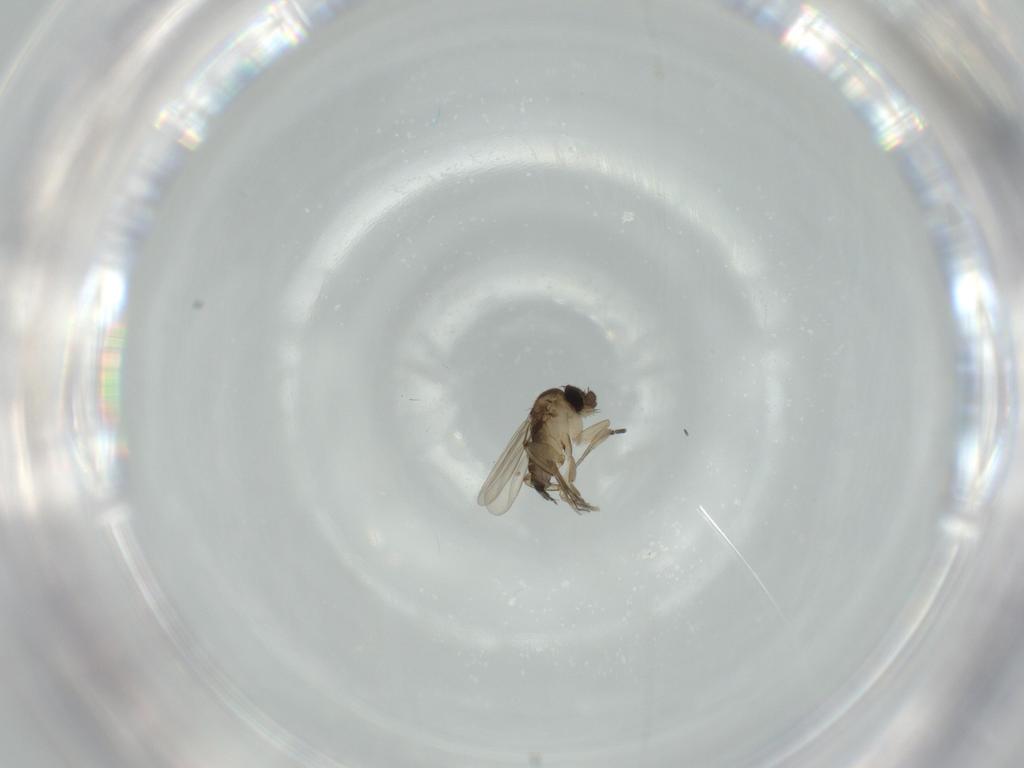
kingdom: Animalia
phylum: Arthropoda
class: Insecta
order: Diptera
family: Phoridae
